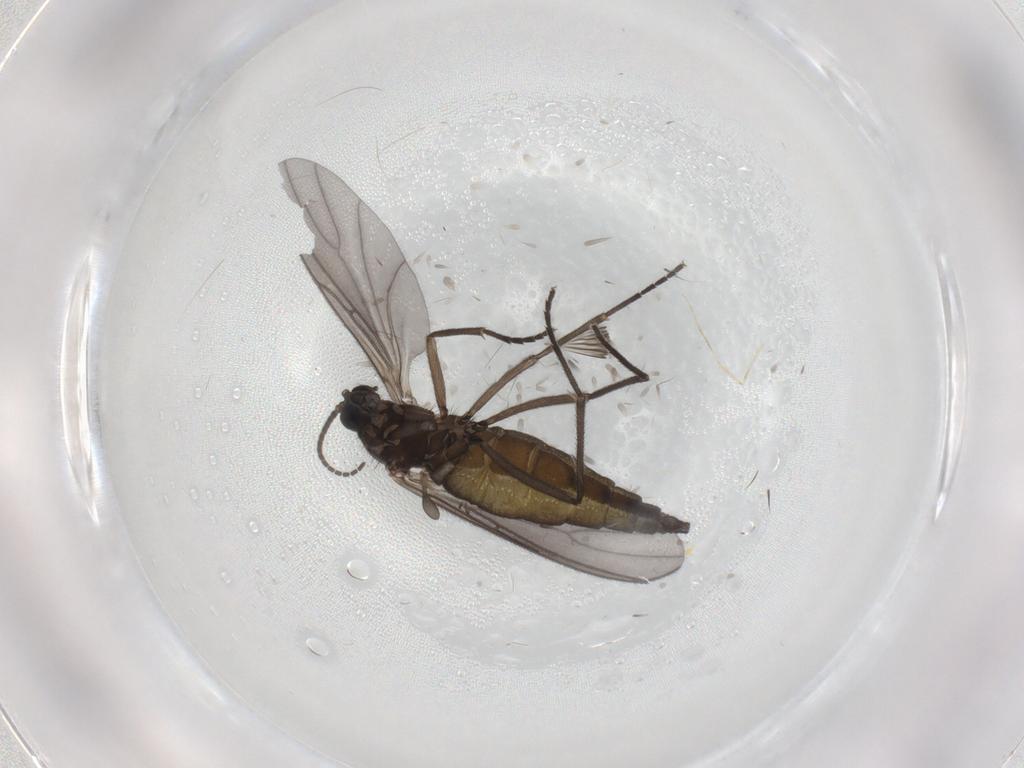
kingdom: Animalia
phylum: Arthropoda
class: Insecta
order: Diptera
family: Sciaridae
